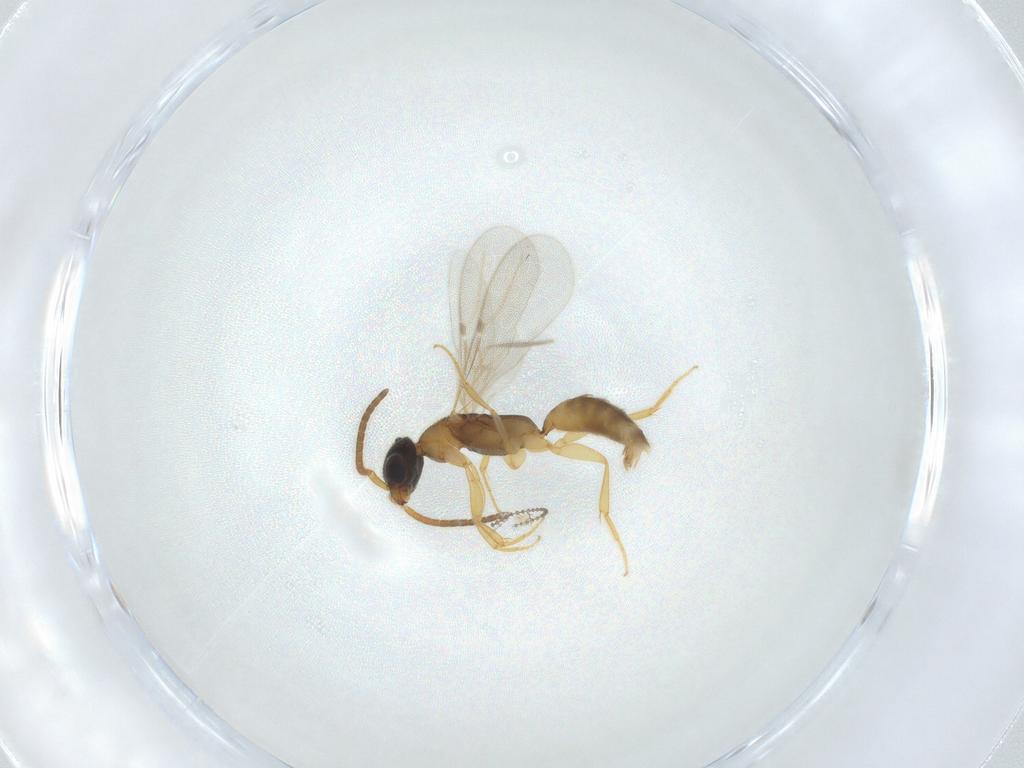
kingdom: Animalia
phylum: Arthropoda
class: Insecta
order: Hymenoptera
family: Bethylidae
